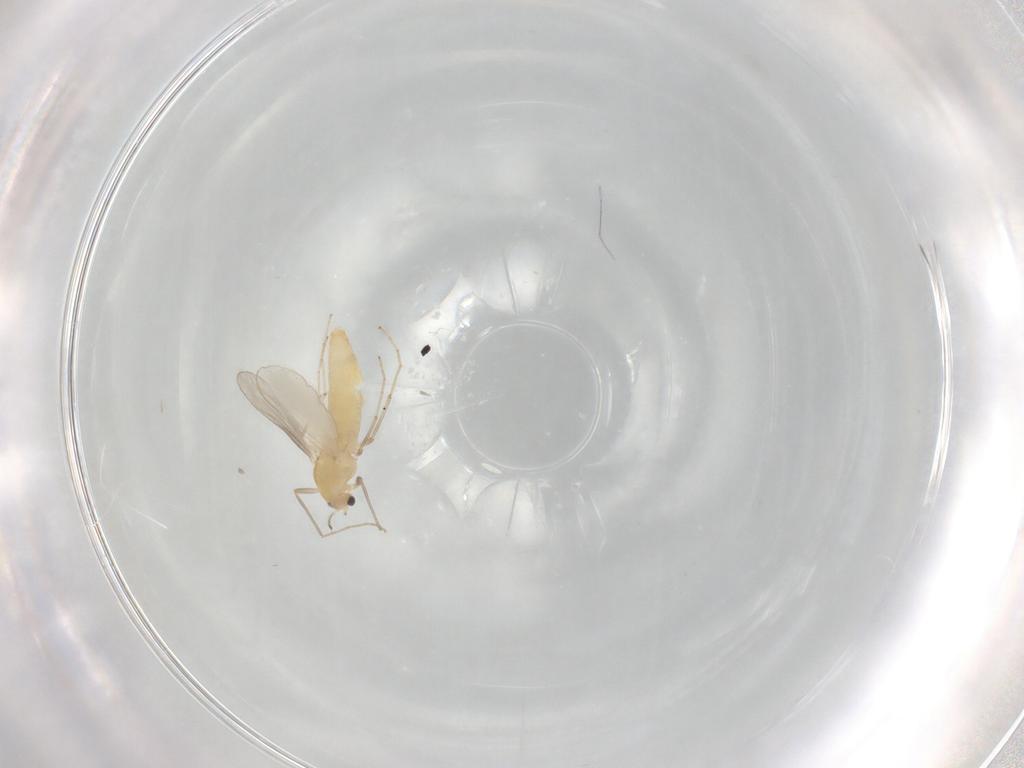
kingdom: Animalia
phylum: Arthropoda
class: Insecta
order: Diptera
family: Chironomidae
